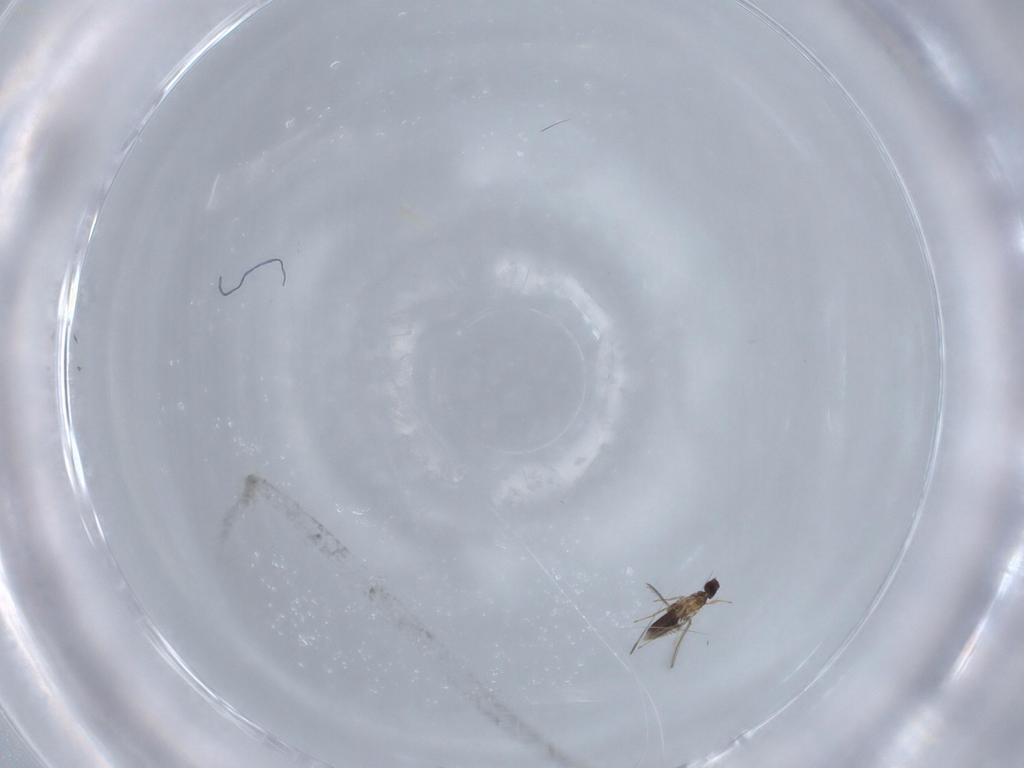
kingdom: Animalia
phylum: Arthropoda
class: Insecta
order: Hymenoptera
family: Mymaridae
